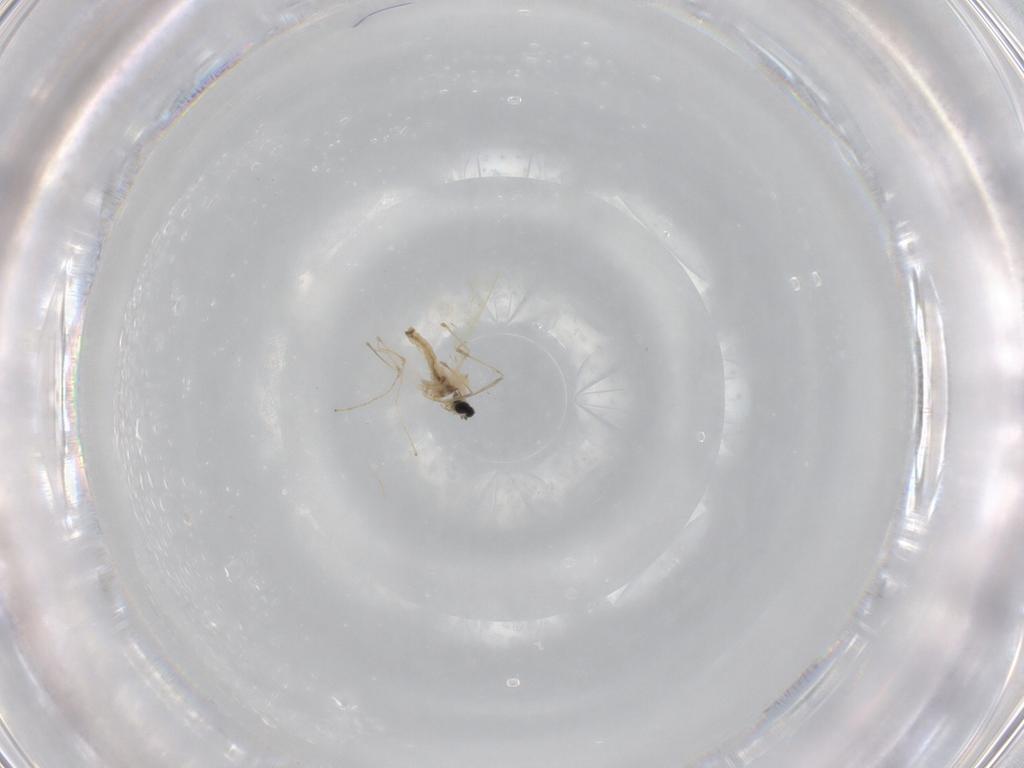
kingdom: Animalia
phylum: Arthropoda
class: Insecta
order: Diptera
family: Cecidomyiidae
